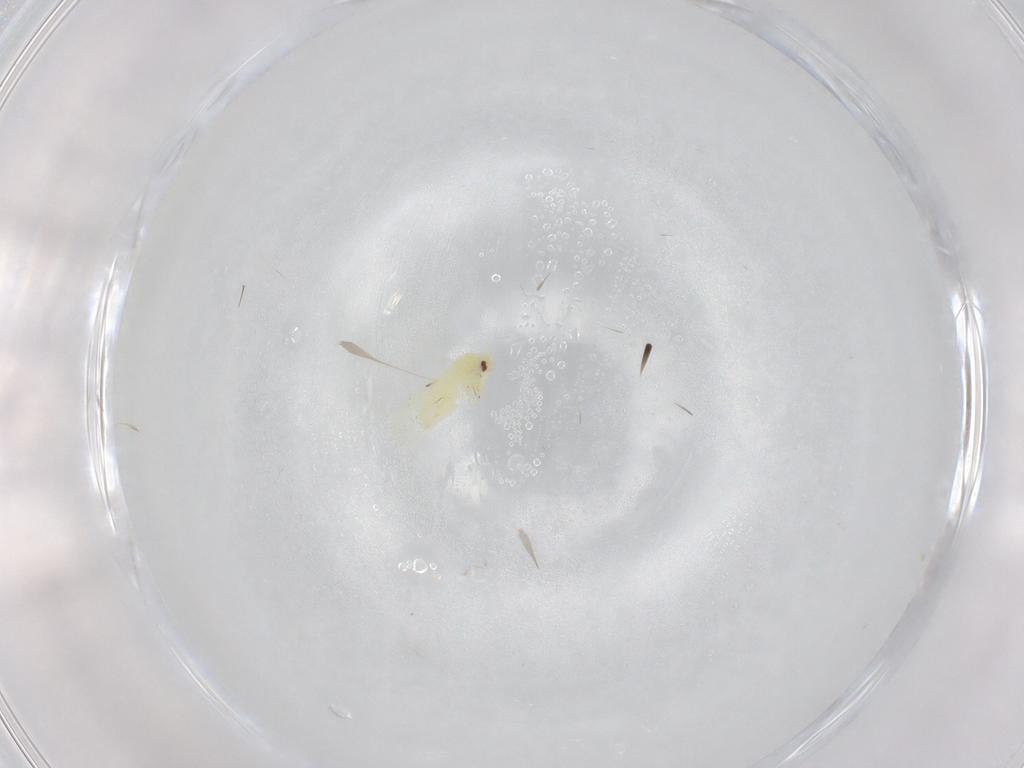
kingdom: Animalia
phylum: Arthropoda
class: Insecta
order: Hemiptera
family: Aleyrodidae
